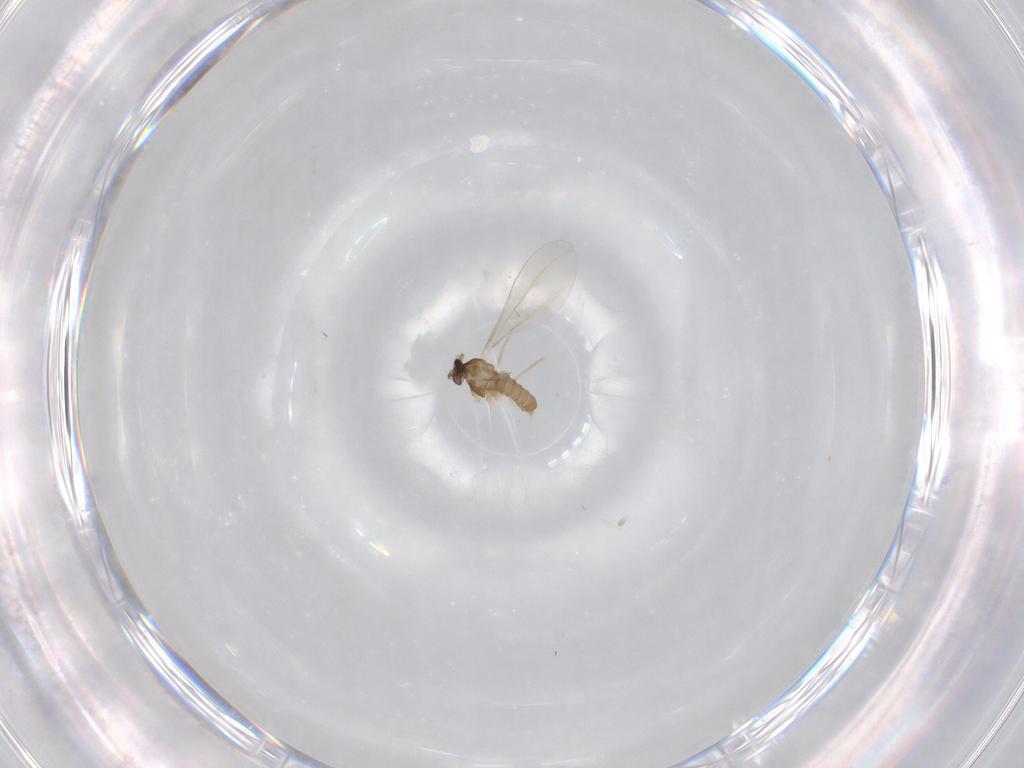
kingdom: Animalia
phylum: Arthropoda
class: Insecta
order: Diptera
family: Cecidomyiidae
